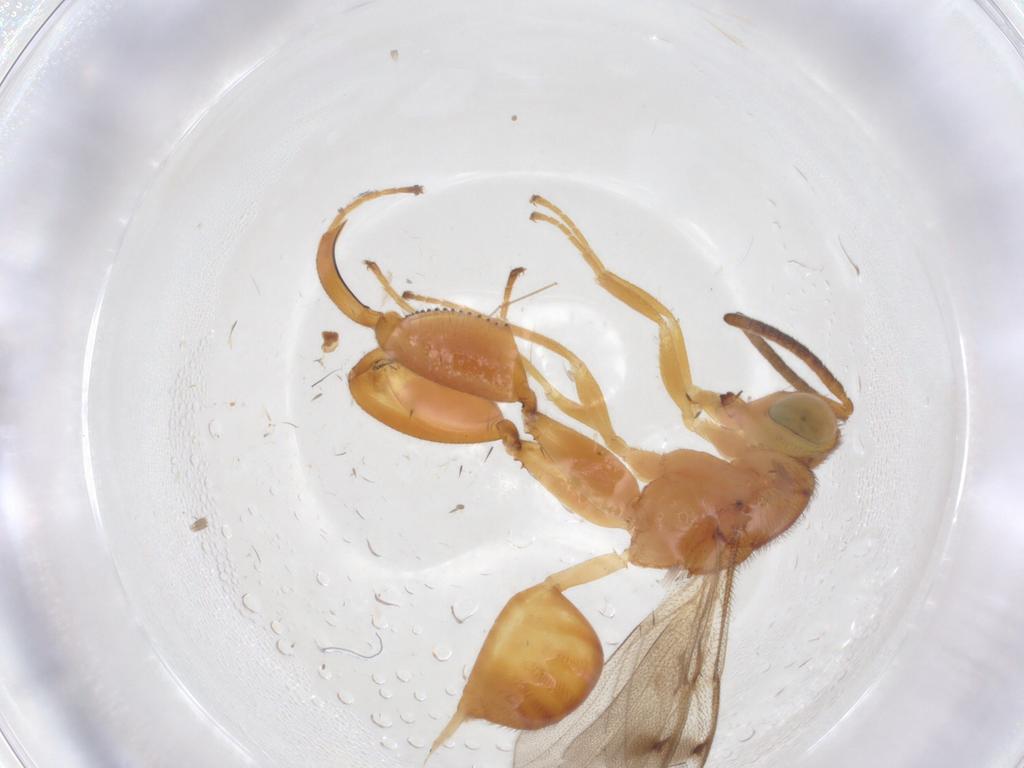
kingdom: Animalia
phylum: Arthropoda
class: Insecta
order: Hymenoptera
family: Chalcididae
